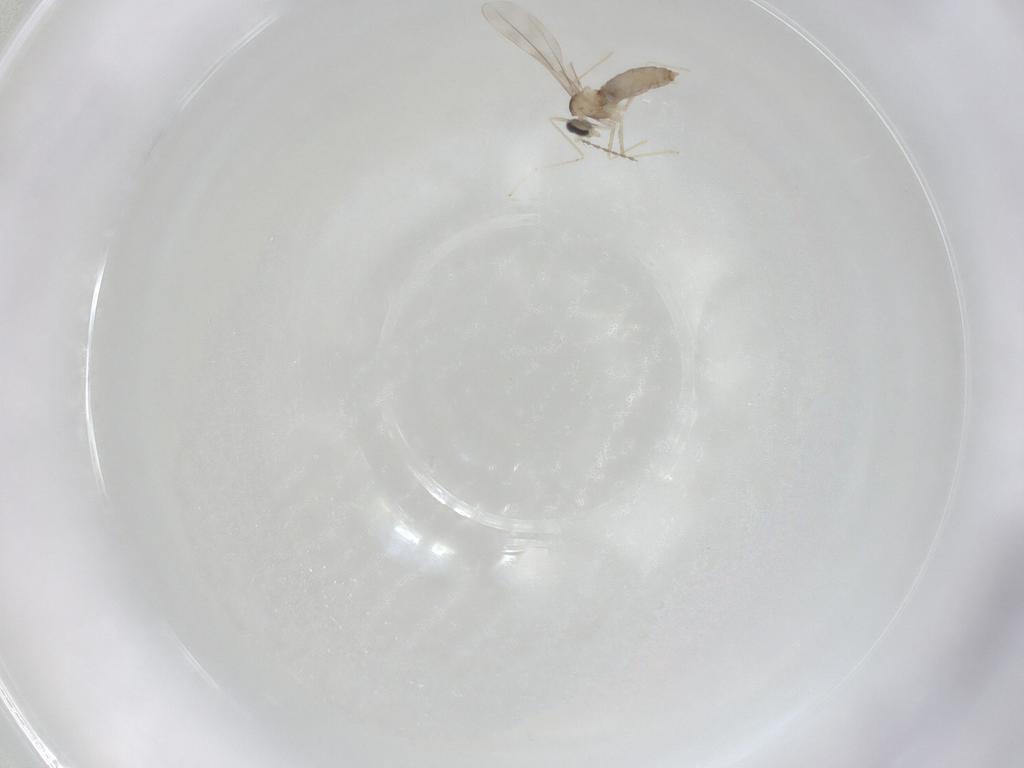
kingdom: Animalia
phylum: Arthropoda
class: Insecta
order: Diptera
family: Cecidomyiidae
